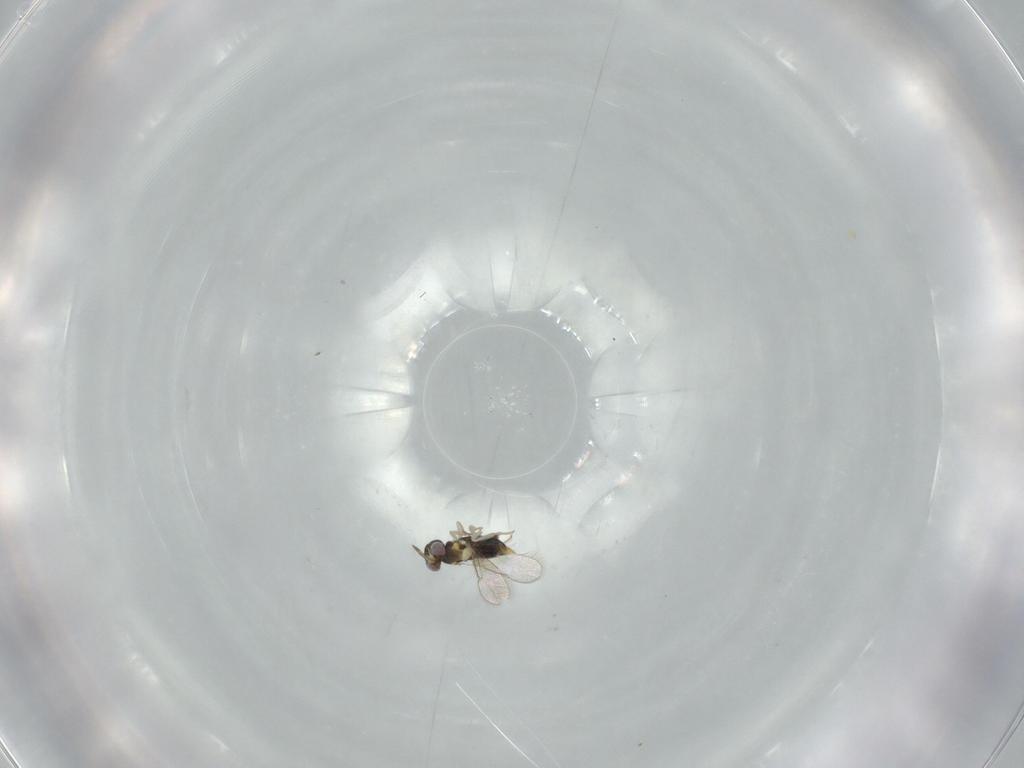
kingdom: Animalia
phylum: Arthropoda
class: Insecta
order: Hymenoptera
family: Aphelinidae
